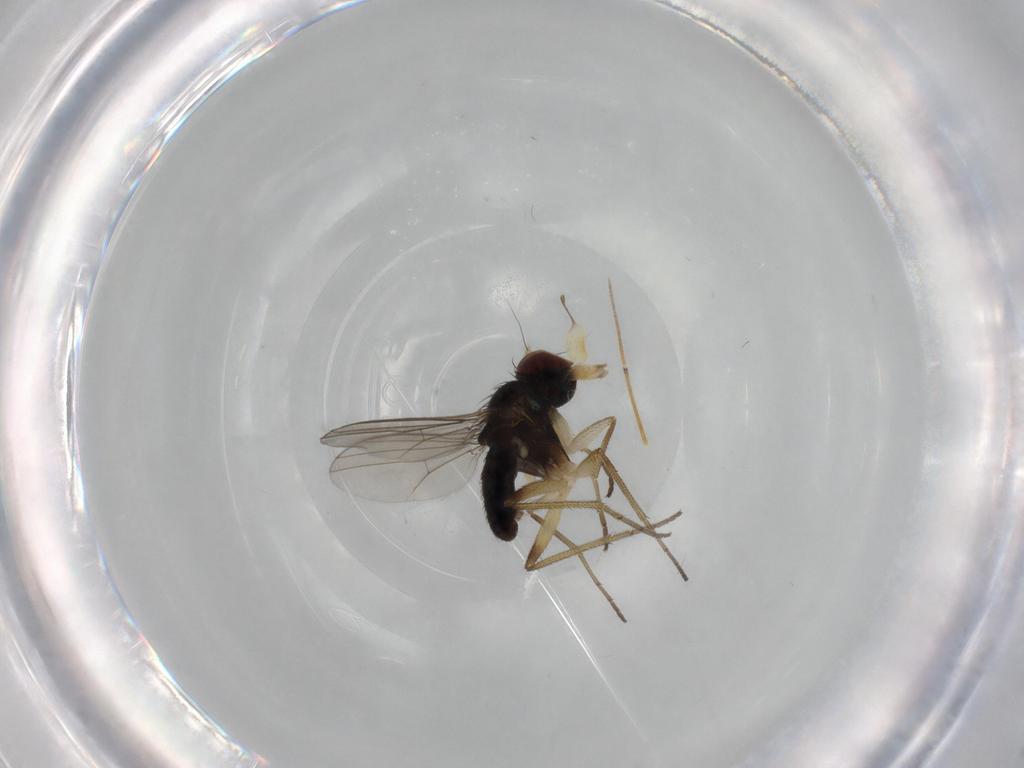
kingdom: Animalia
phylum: Arthropoda
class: Insecta
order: Diptera
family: Dolichopodidae
